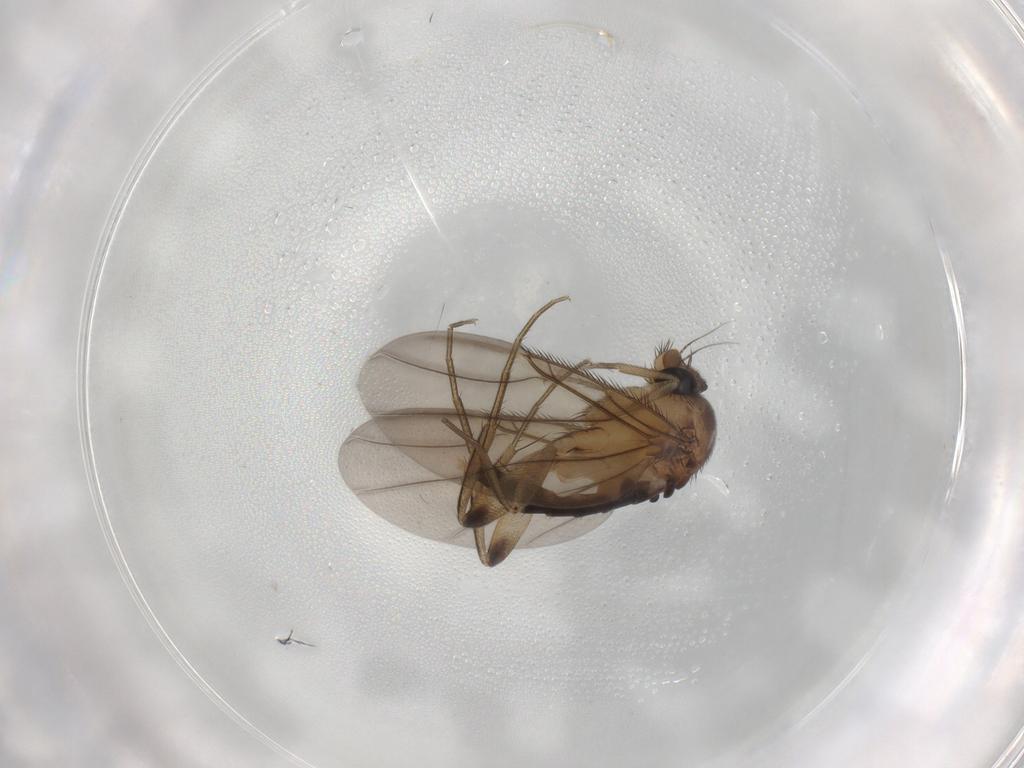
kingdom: Animalia
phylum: Arthropoda
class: Insecta
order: Diptera
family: Phoridae
